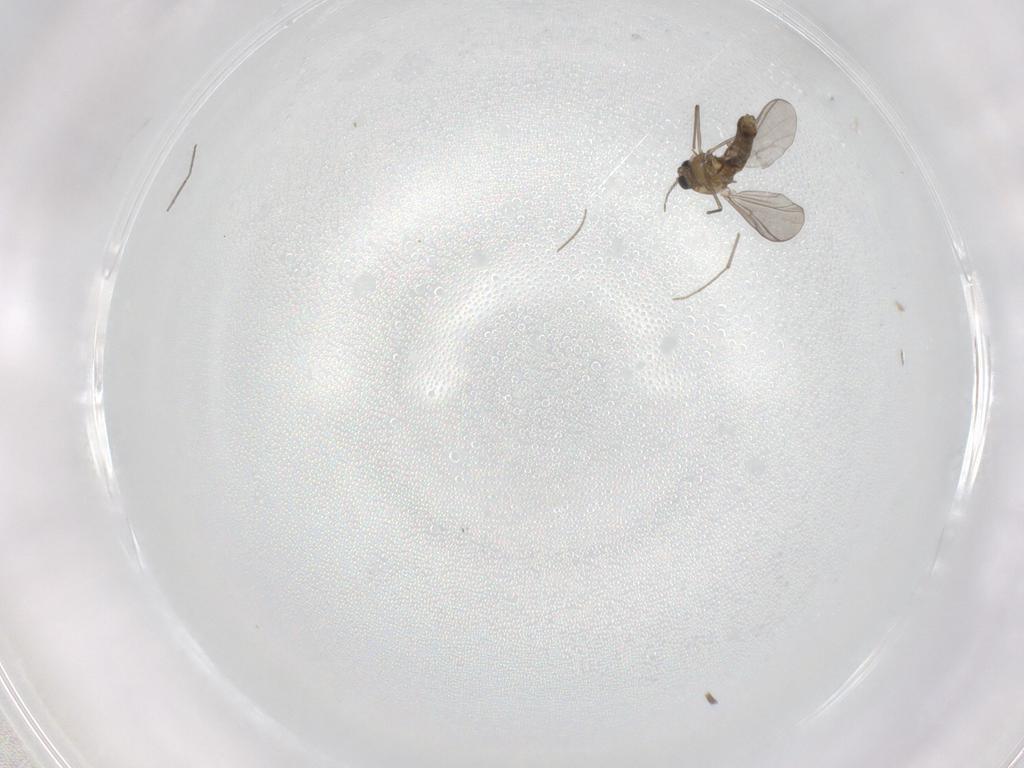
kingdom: Animalia
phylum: Arthropoda
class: Insecta
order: Diptera
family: Chironomidae
